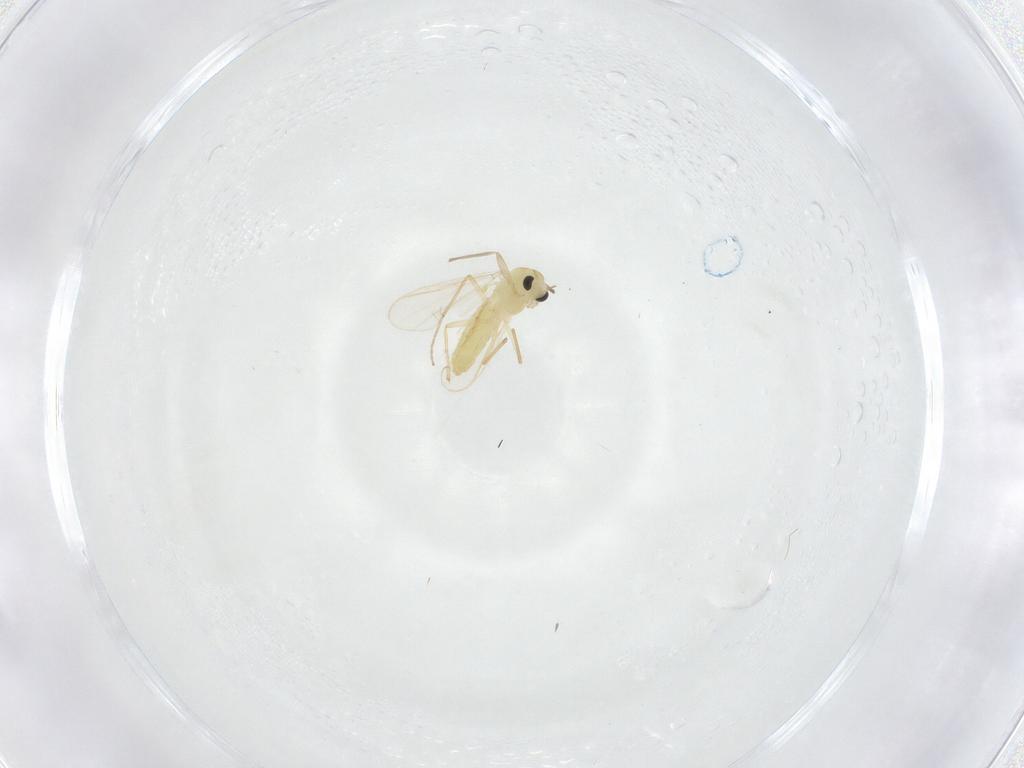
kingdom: Animalia
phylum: Arthropoda
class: Insecta
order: Diptera
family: Chironomidae
